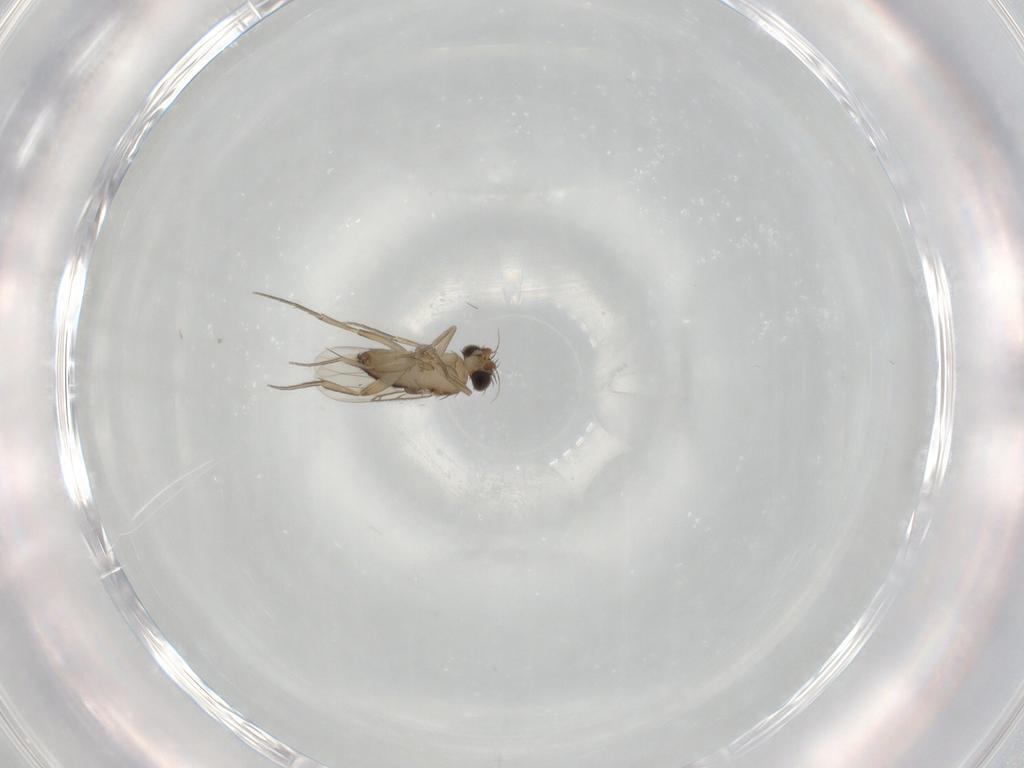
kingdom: Animalia
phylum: Arthropoda
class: Insecta
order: Diptera
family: Phoridae
